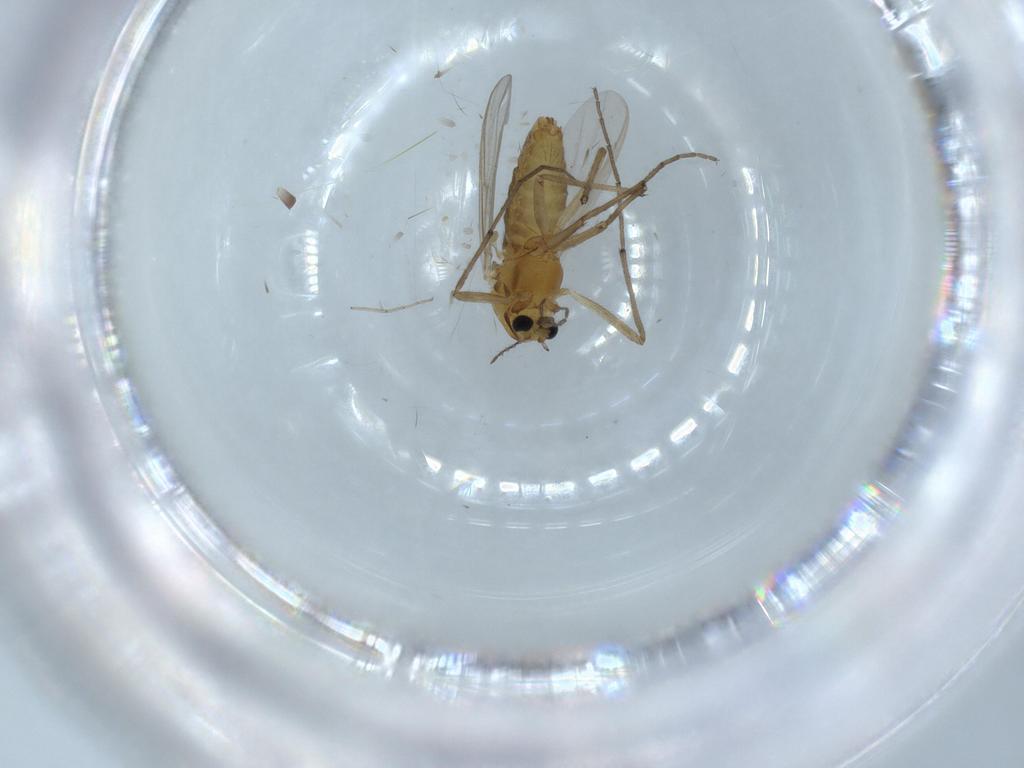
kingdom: Animalia
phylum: Arthropoda
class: Insecta
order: Diptera
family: Chironomidae
